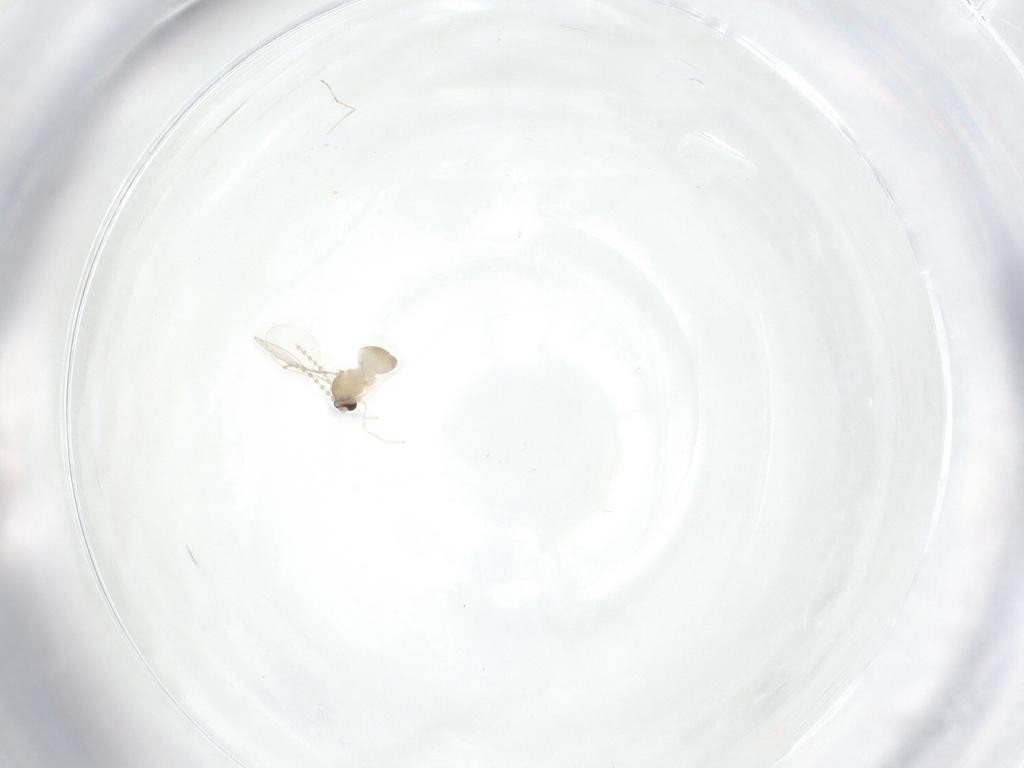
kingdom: Animalia
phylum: Arthropoda
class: Insecta
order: Diptera
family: Cecidomyiidae
